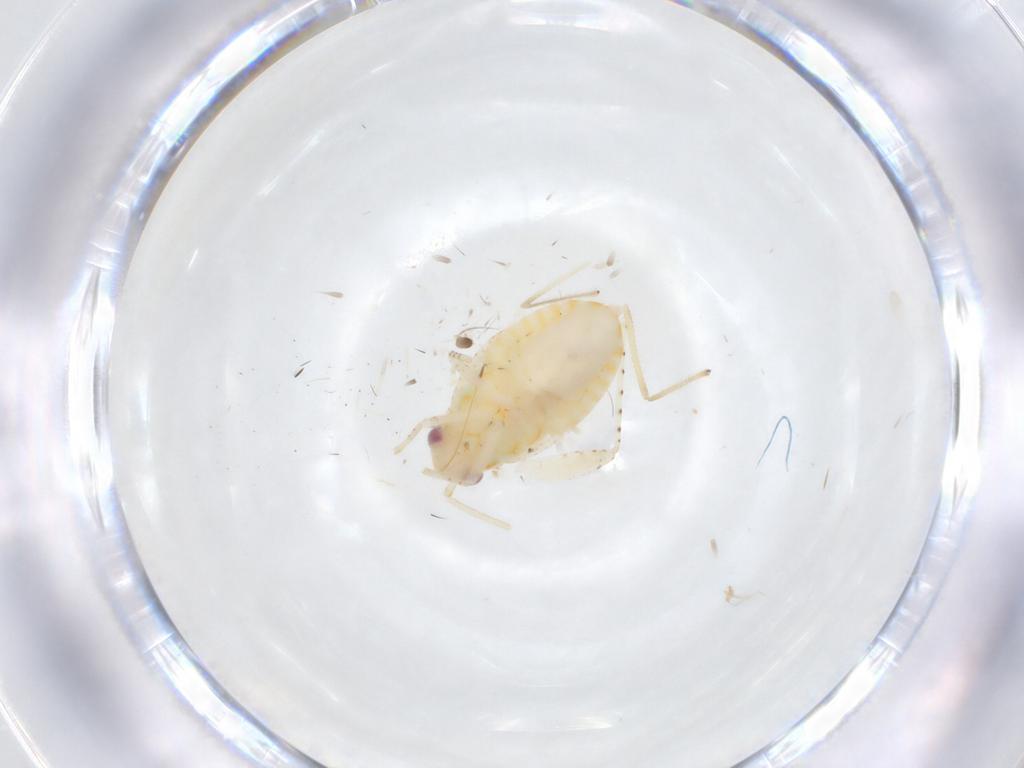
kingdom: Animalia
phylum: Arthropoda
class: Insecta
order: Hemiptera
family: Miridae
